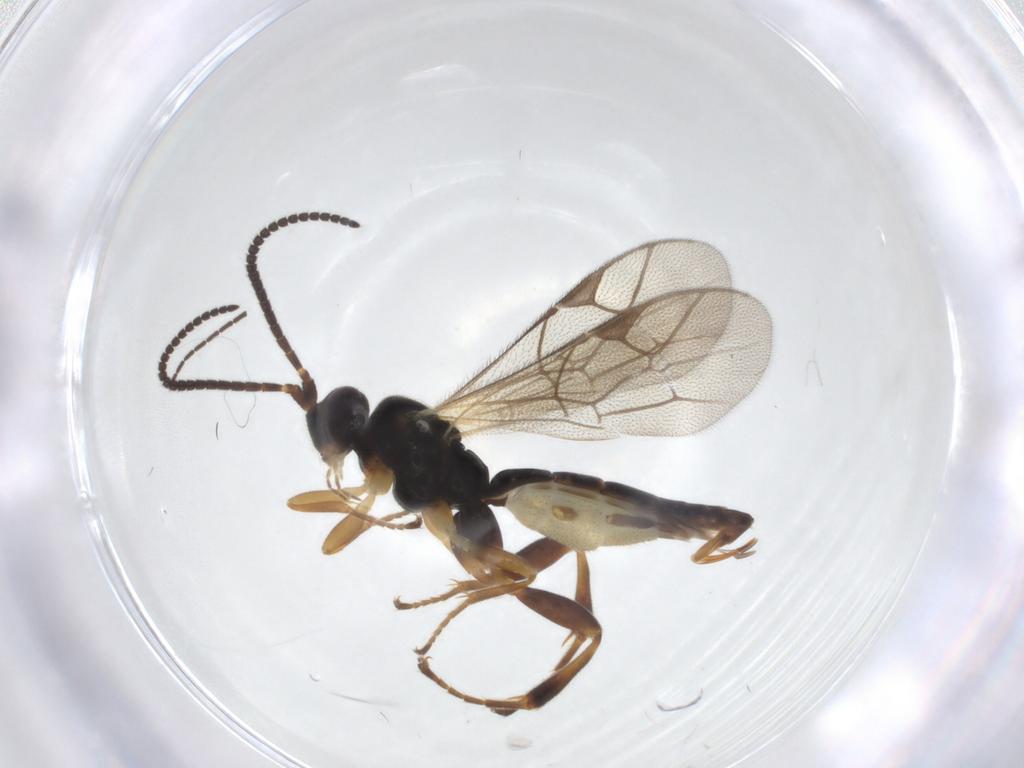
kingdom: Animalia
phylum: Arthropoda
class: Insecta
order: Hymenoptera
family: Ichneumonidae
